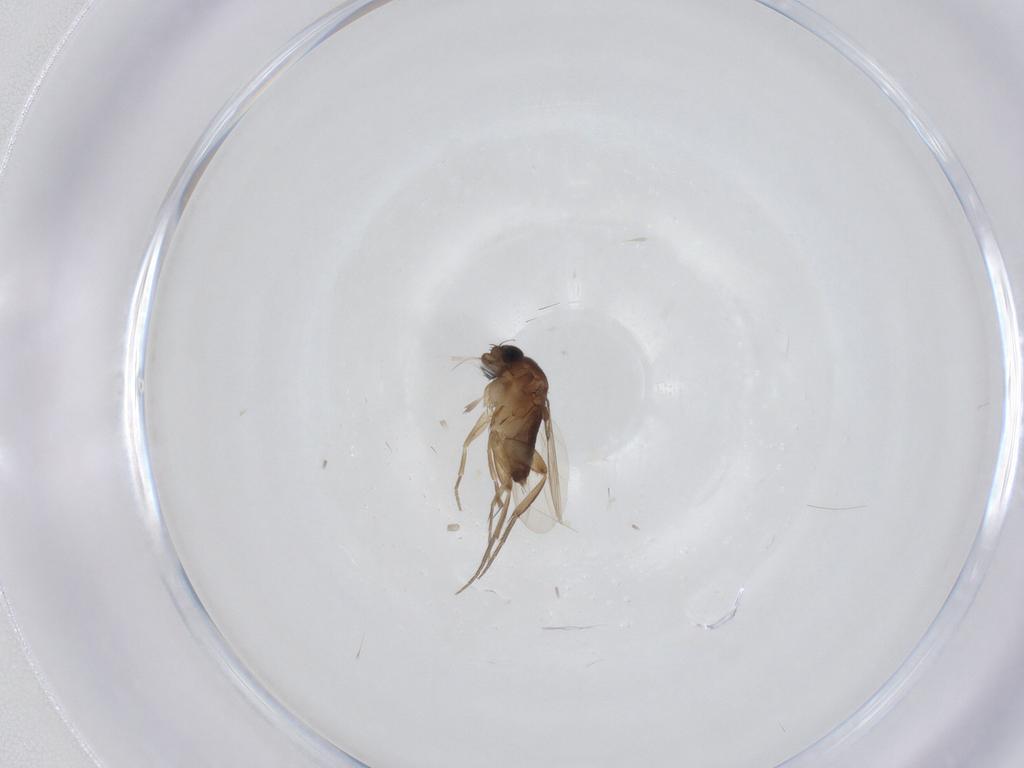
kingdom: Animalia
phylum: Arthropoda
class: Insecta
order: Diptera
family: Phoridae
